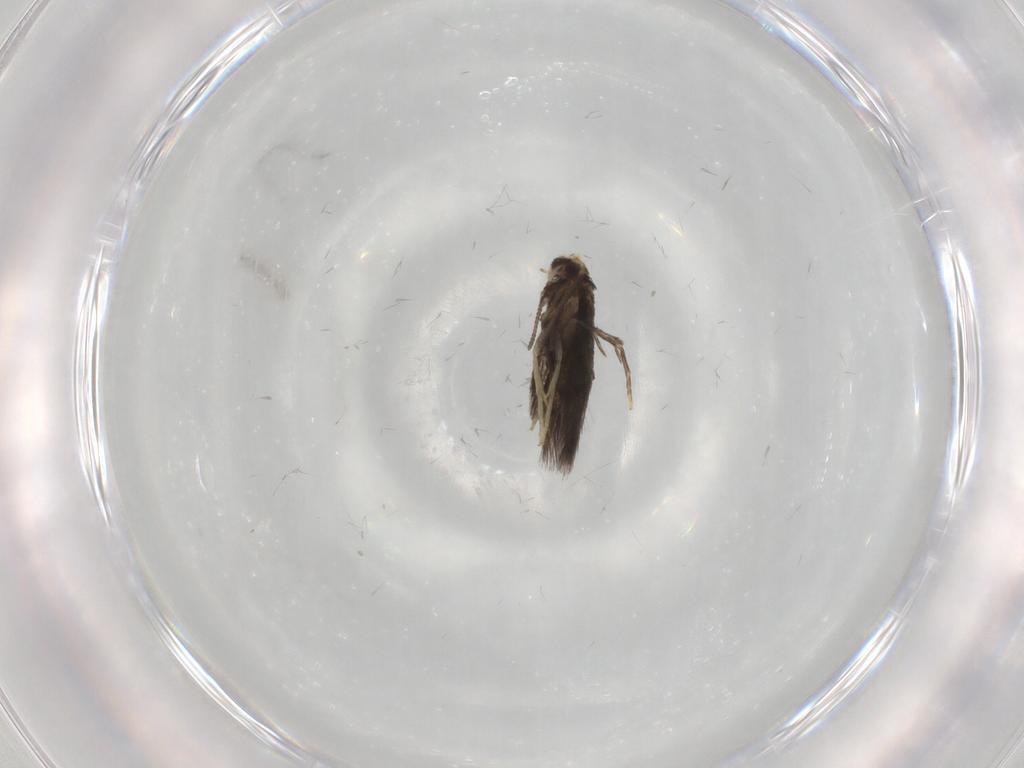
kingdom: Animalia
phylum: Arthropoda
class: Insecta
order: Lepidoptera
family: Nepticulidae
